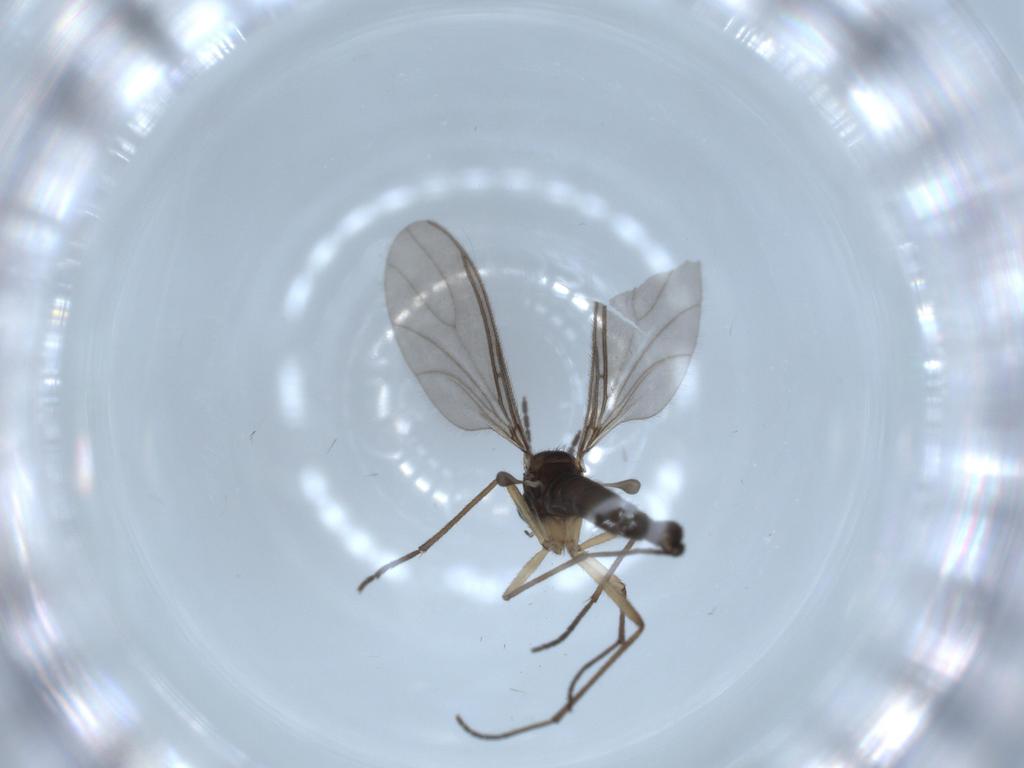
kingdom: Animalia
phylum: Arthropoda
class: Insecta
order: Diptera
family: Sciaridae
